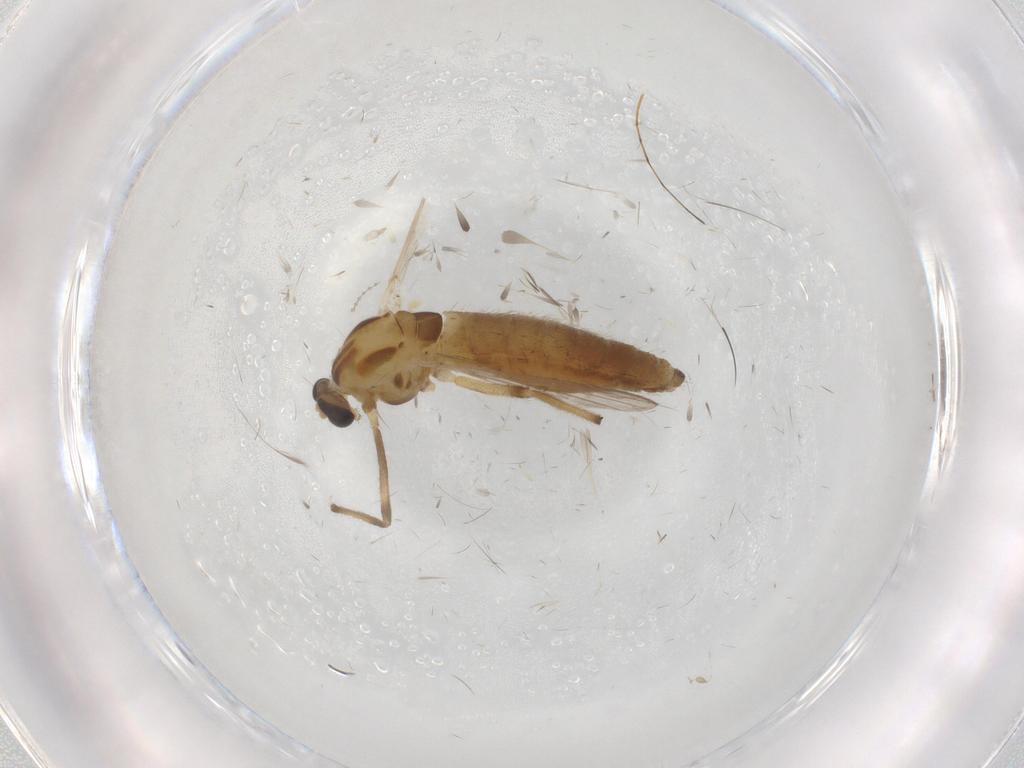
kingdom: Animalia
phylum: Arthropoda
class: Insecta
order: Diptera
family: Chironomidae
